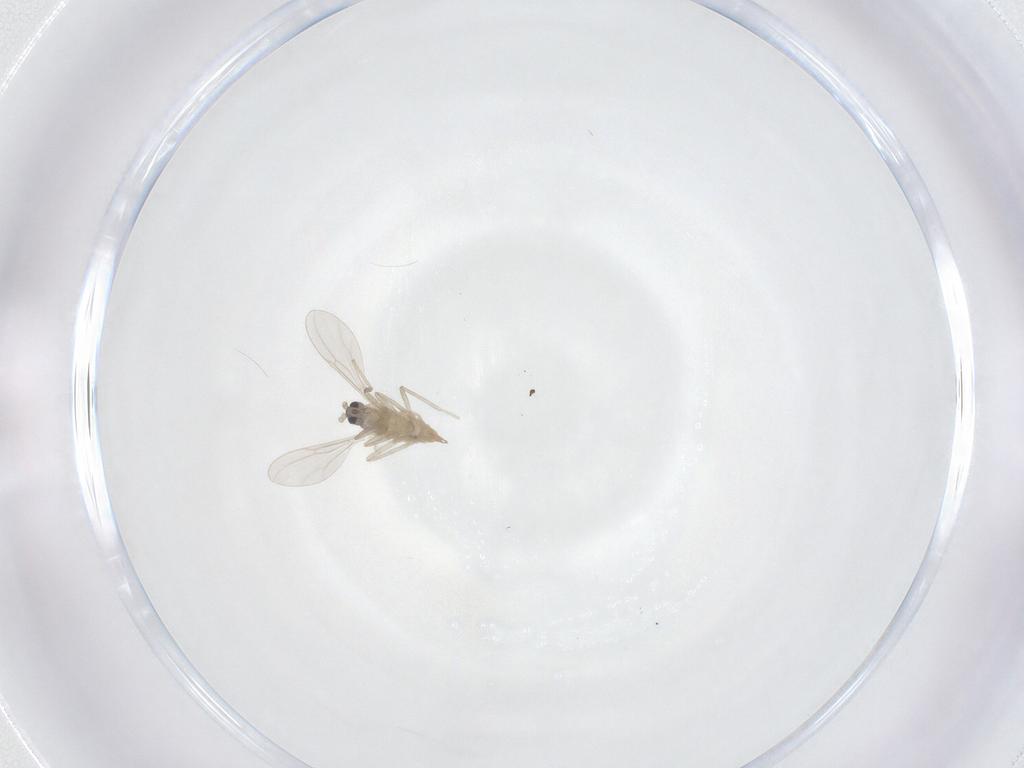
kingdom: Animalia
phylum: Arthropoda
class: Insecta
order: Diptera
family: Cecidomyiidae
